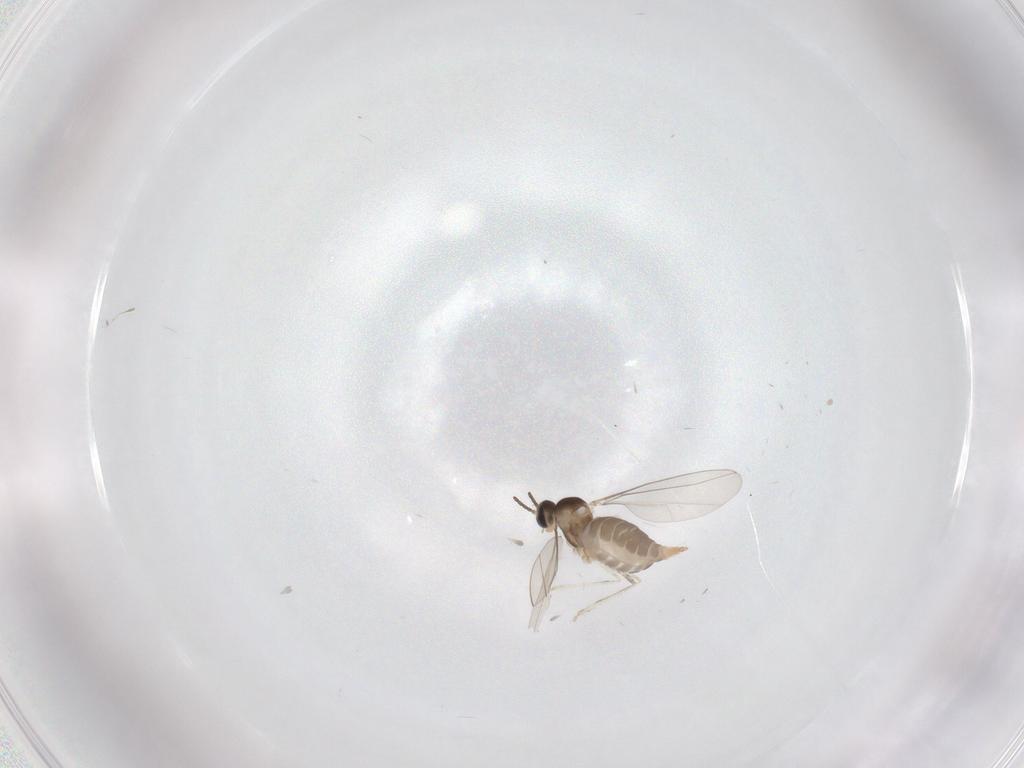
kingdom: Animalia
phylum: Arthropoda
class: Insecta
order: Diptera
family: Cecidomyiidae
